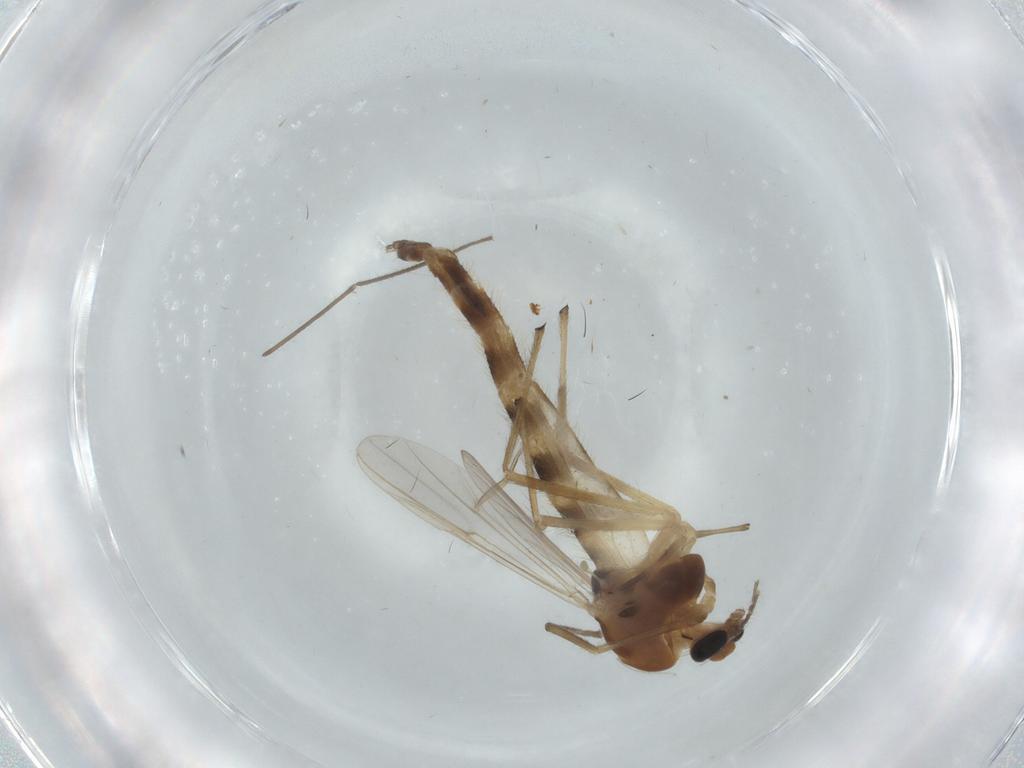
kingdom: Animalia
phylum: Arthropoda
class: Insecta
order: Diptera
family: Chironomidae
